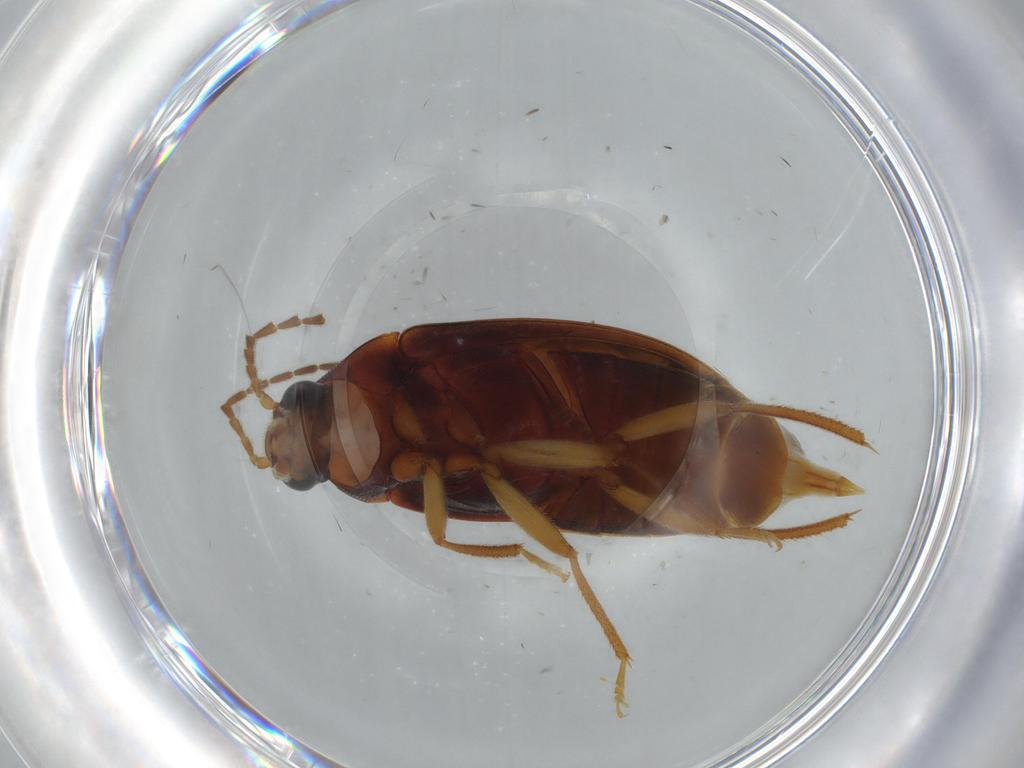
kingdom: Animalia
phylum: Arthropoda
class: Insecta
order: Coleoptera
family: Ptilodactylidae
